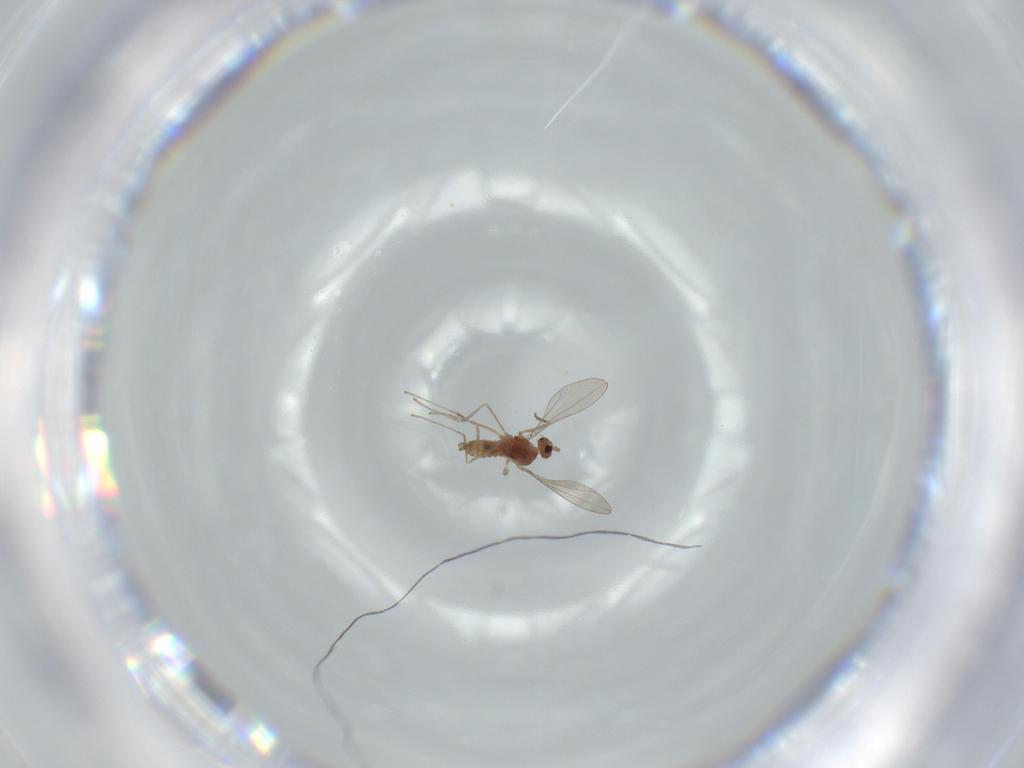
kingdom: Animalia
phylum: Arthropoda
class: Insecta
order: Diptera
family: Cecidomyiidae
